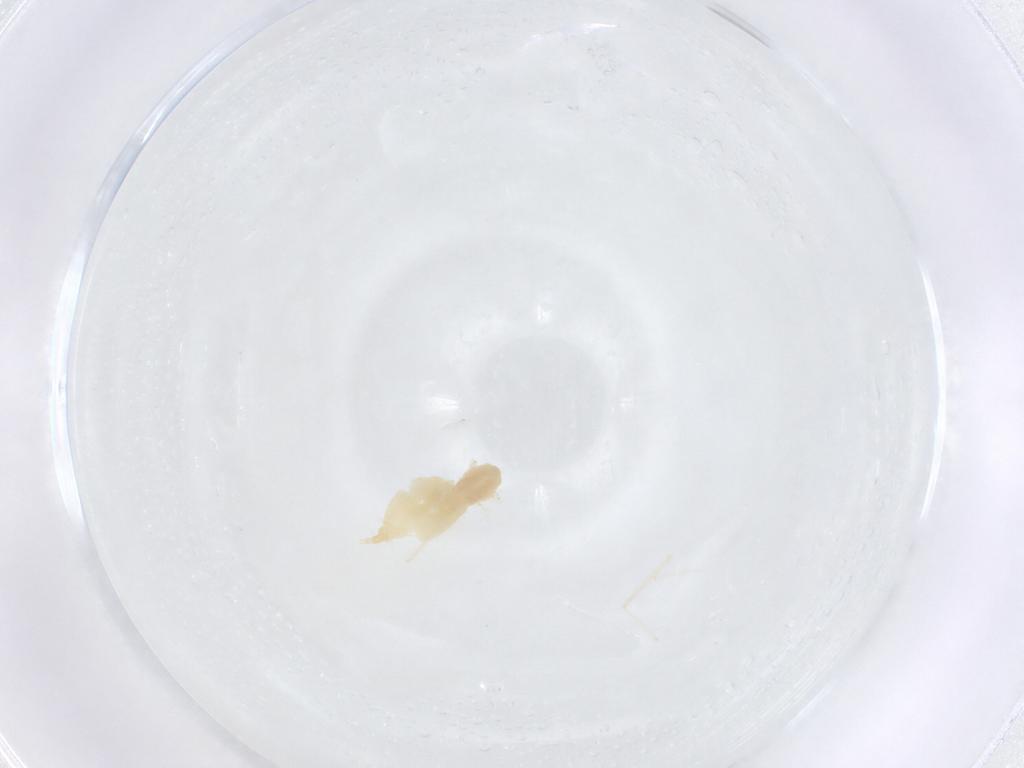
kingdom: Animalia
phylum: Arthropoda
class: Insecta
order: Diptera
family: Cecidomyiidae
